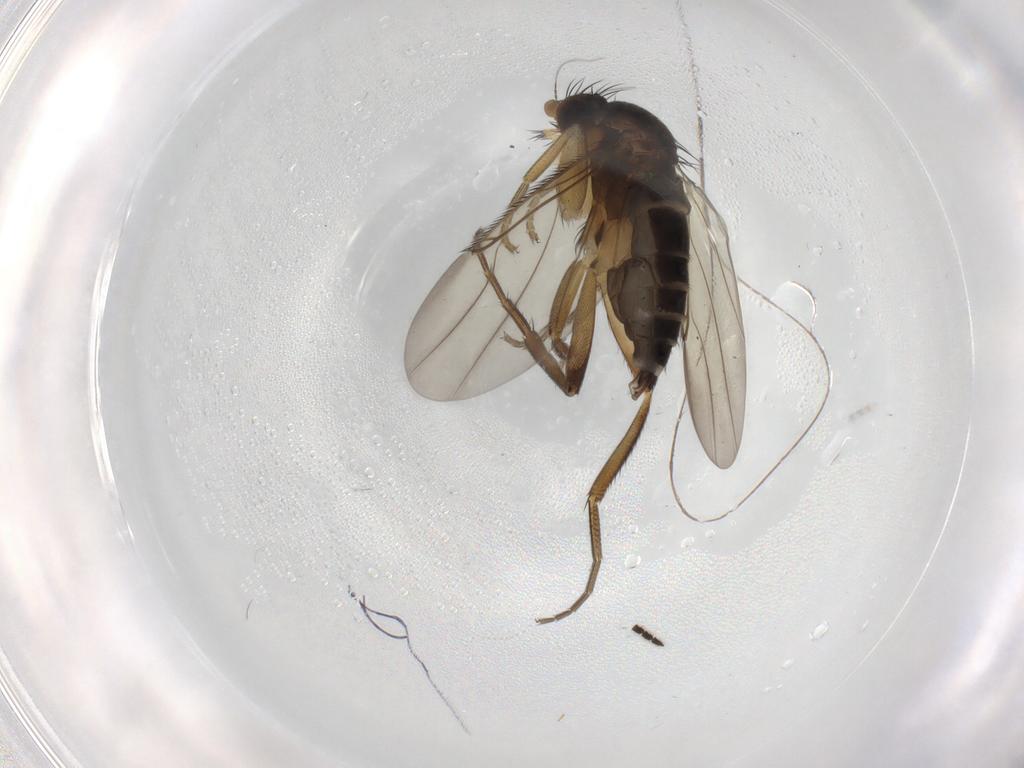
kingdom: Animalia
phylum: Arthropoda
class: Insecta
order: Diptera
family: Phoridae
